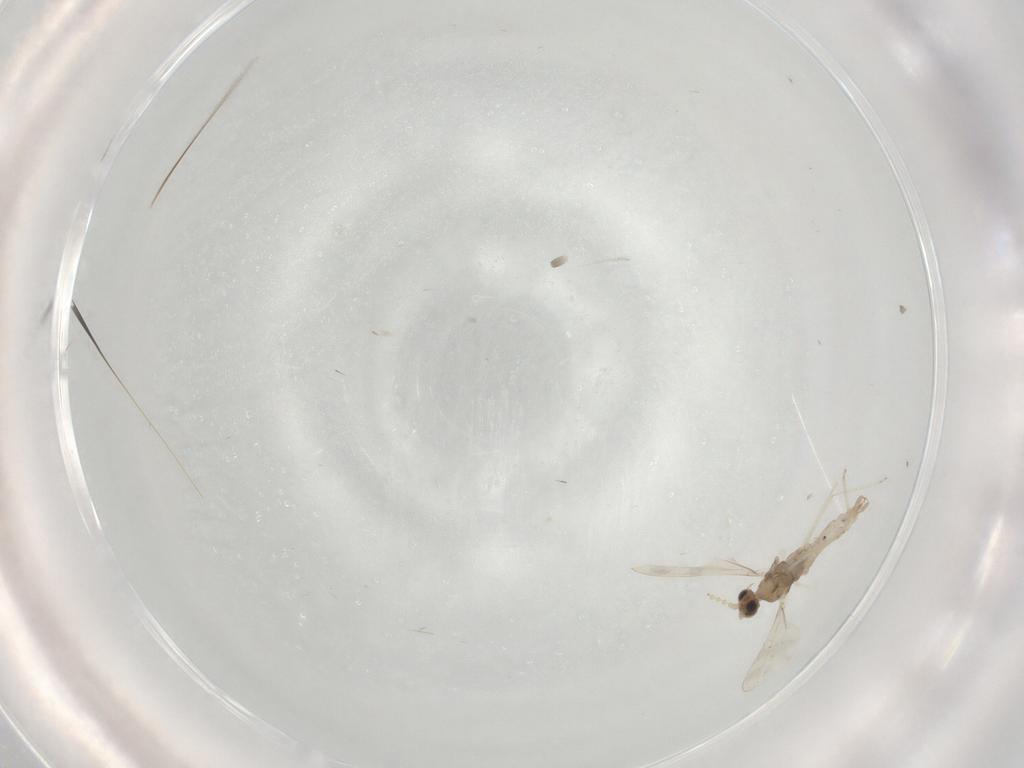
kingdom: Animalia
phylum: Arthropoda
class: Insecta
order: Diptera
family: Cecidomyiidae
